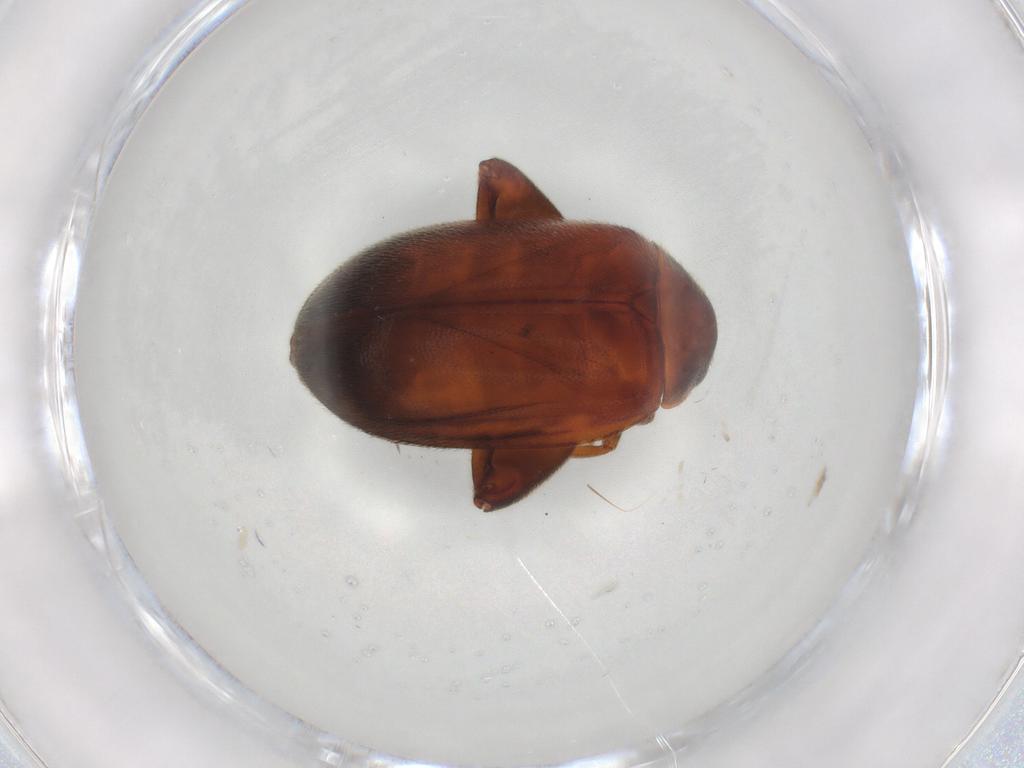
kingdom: Animalia
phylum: Arthropoda
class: Insecta
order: Coleoptera
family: Scirtidae
